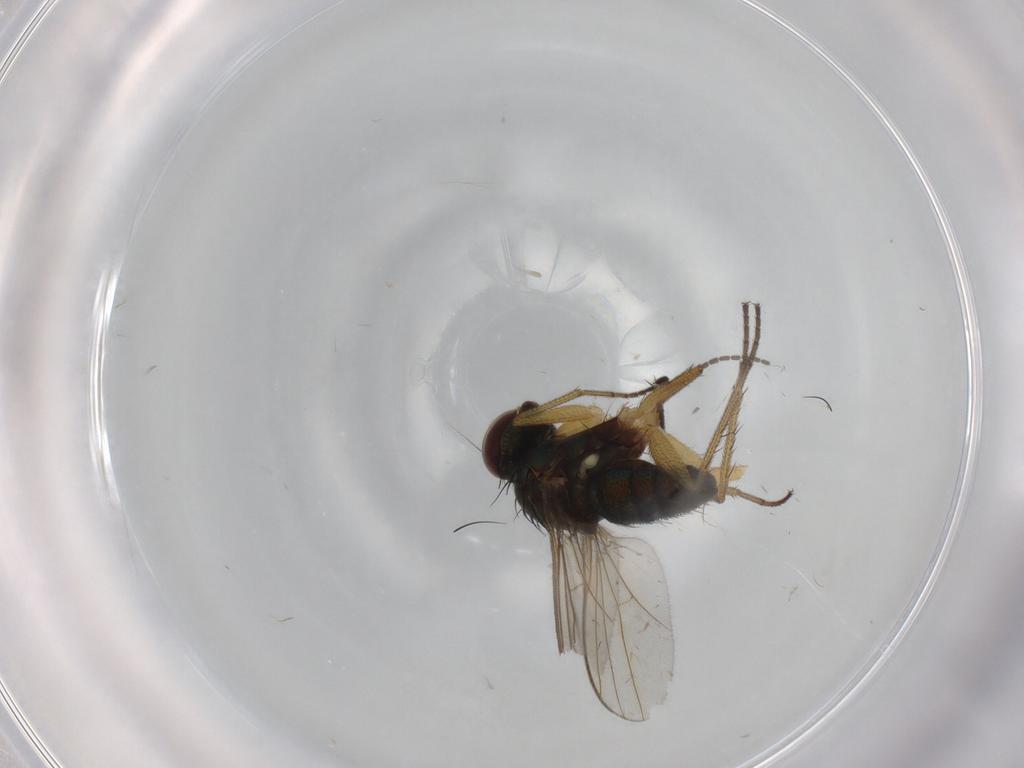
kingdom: Animalia
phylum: Arthropoda
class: Insecta
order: Diptera
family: Sciaridae
